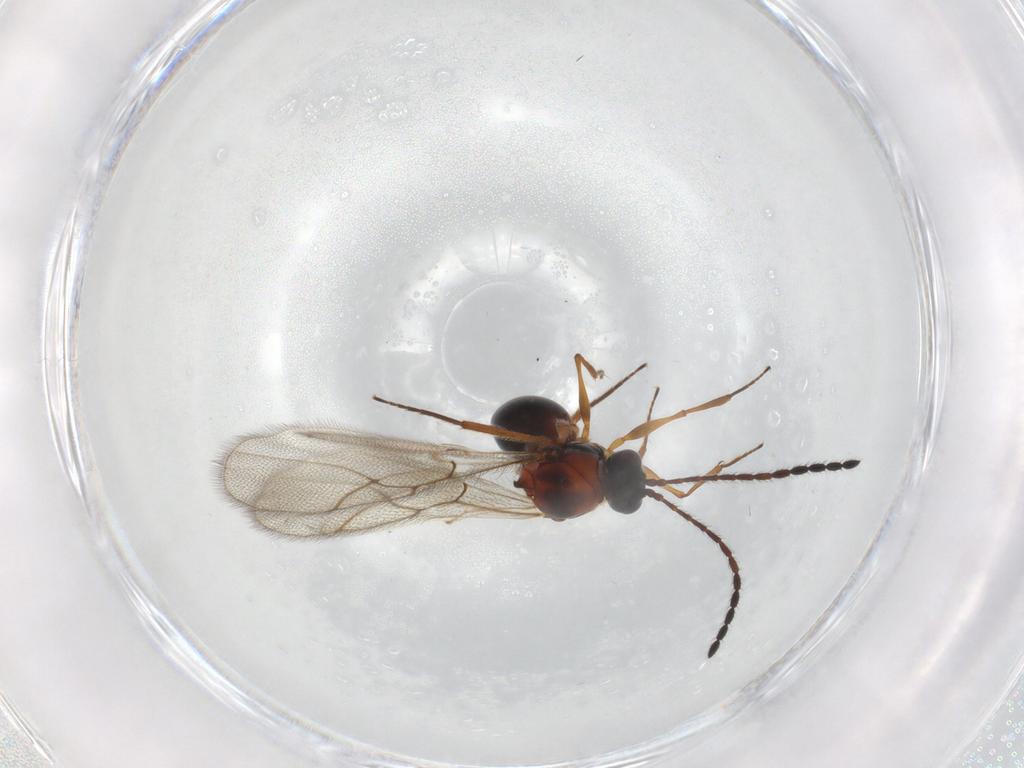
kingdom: Animalia
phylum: Arthropoda
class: Insecta
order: Hymenoptera
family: Figitidae
